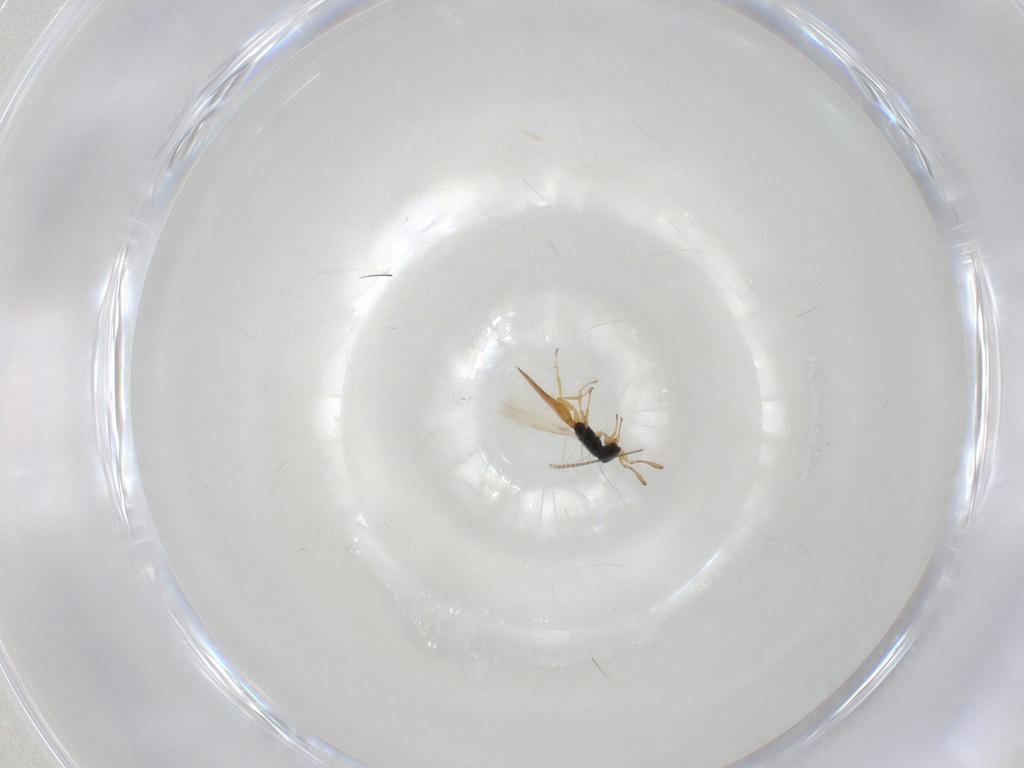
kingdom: Animalia
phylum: Arthropoda
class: Insecta
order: Hymenoptera
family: Scelionidae
